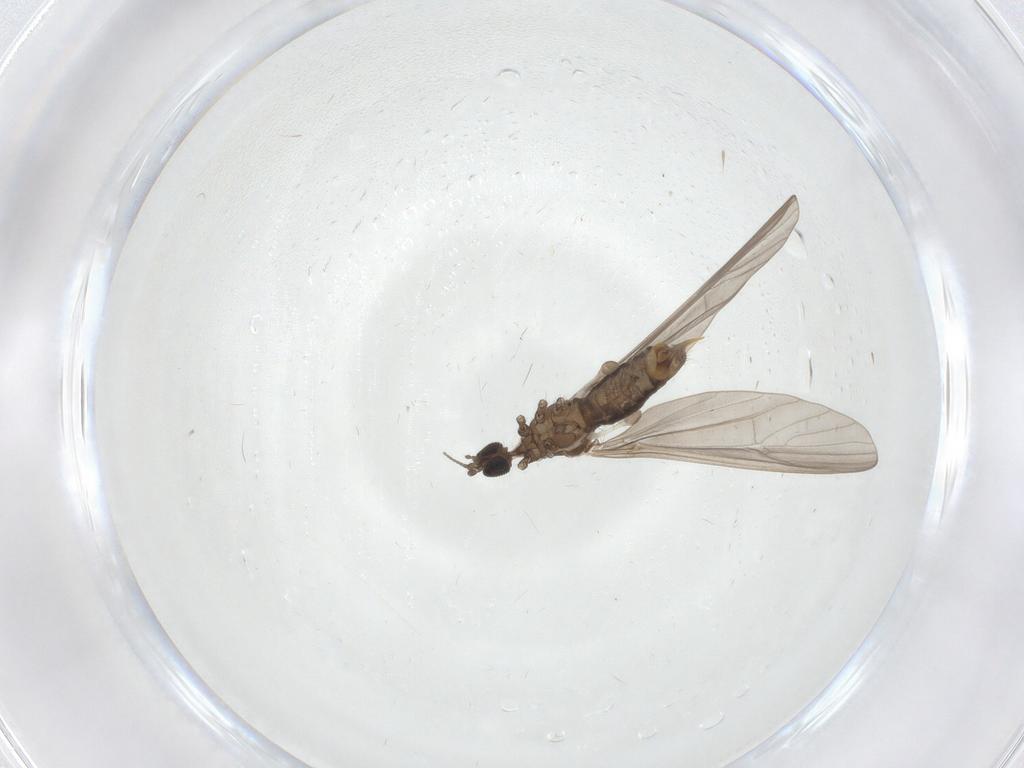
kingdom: Animalia
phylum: Arthropoda
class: Insecta
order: Diptera
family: Limoniidae
